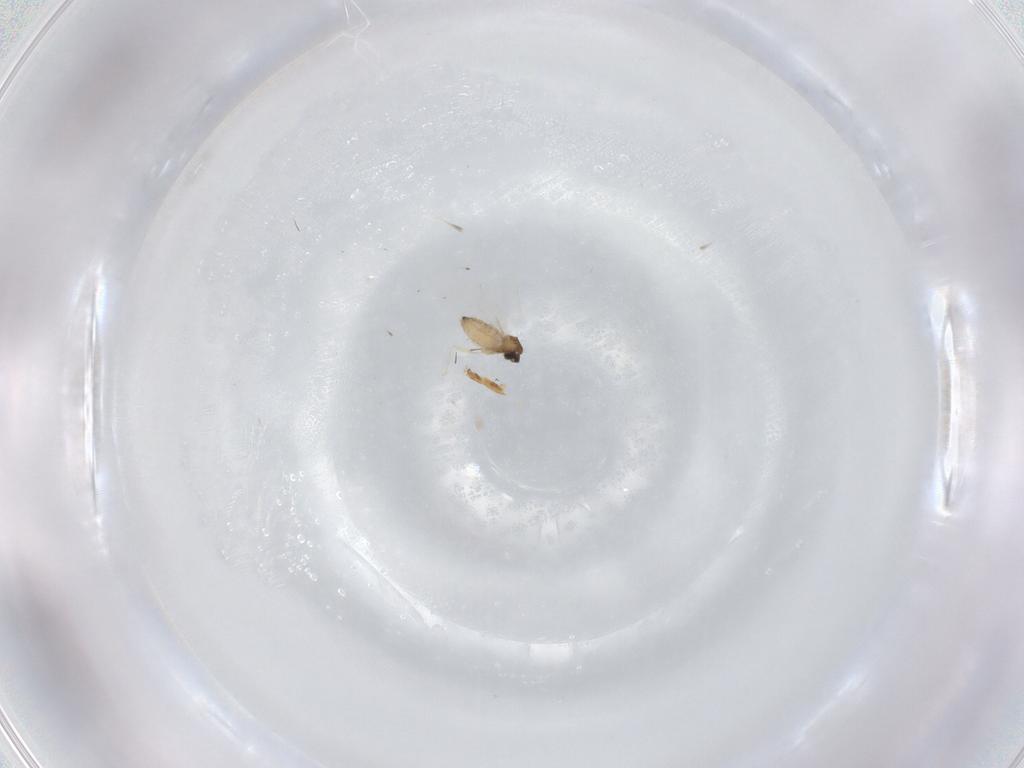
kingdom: Animalia
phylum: Arthropoda
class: Insecta
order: Diptera
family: Cecidomyiidae
